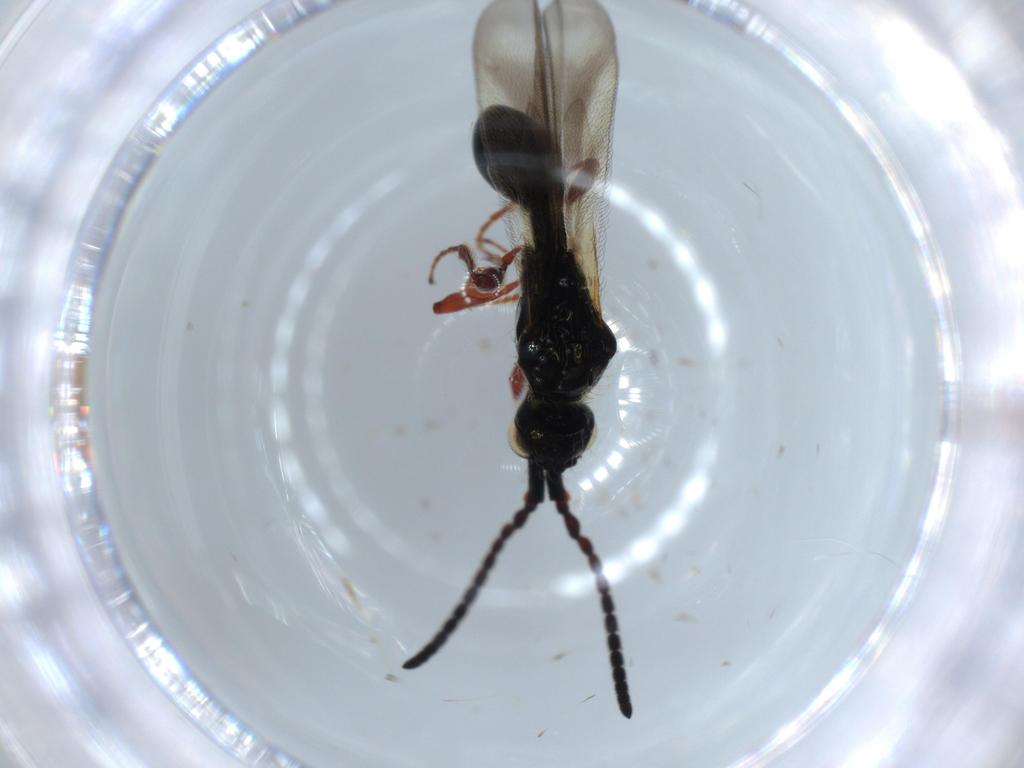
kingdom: Animalia
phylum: Arthropoda
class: Insecta
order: Hymenoptera
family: Diapriidae
